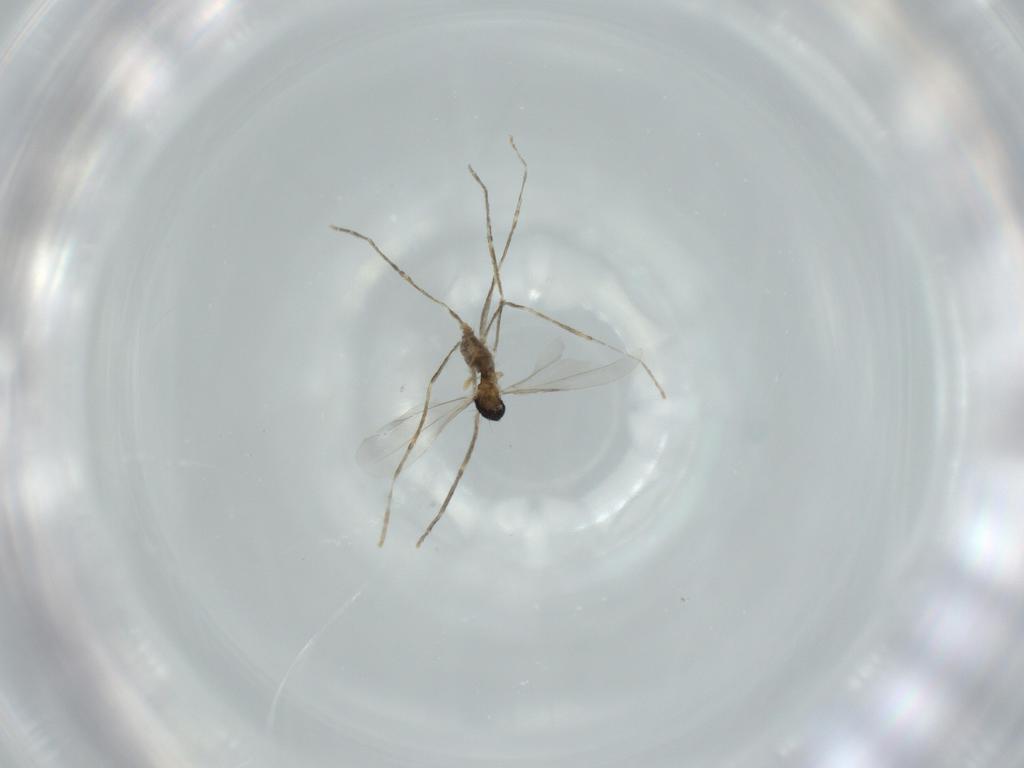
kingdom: Animalia
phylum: Arthropoda
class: Insecta
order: Diptera
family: Cecidomyiidae
